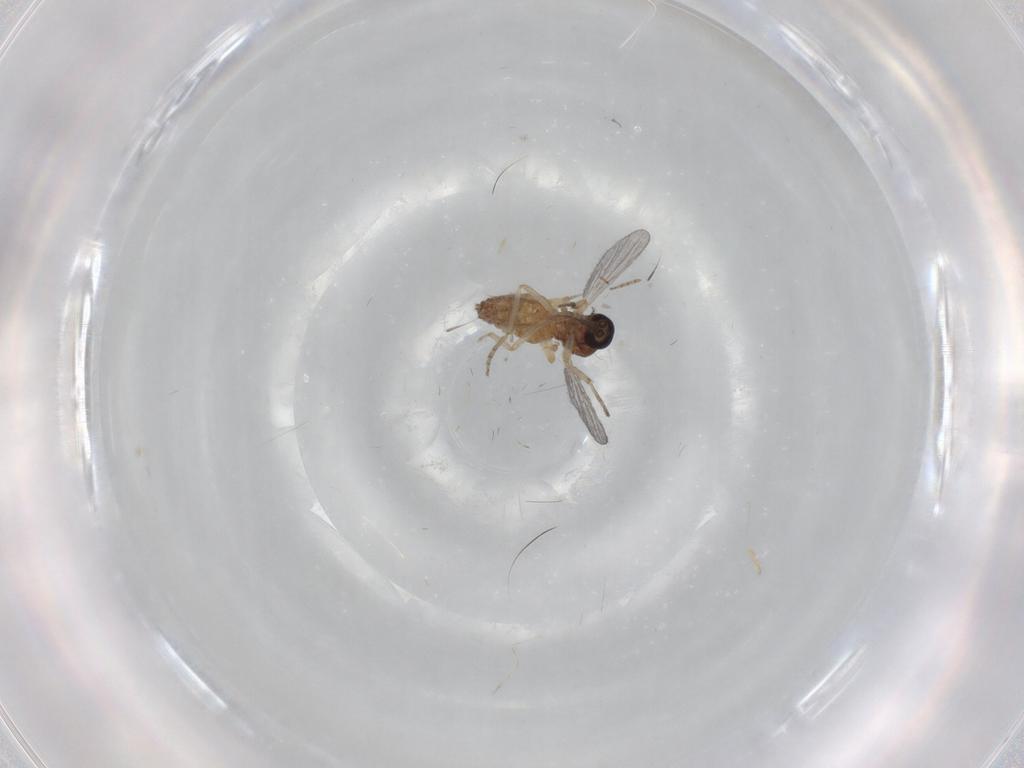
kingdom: Animalia
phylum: Arthropoda
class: Insecta
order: Diptera
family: Ceratopogonidae
